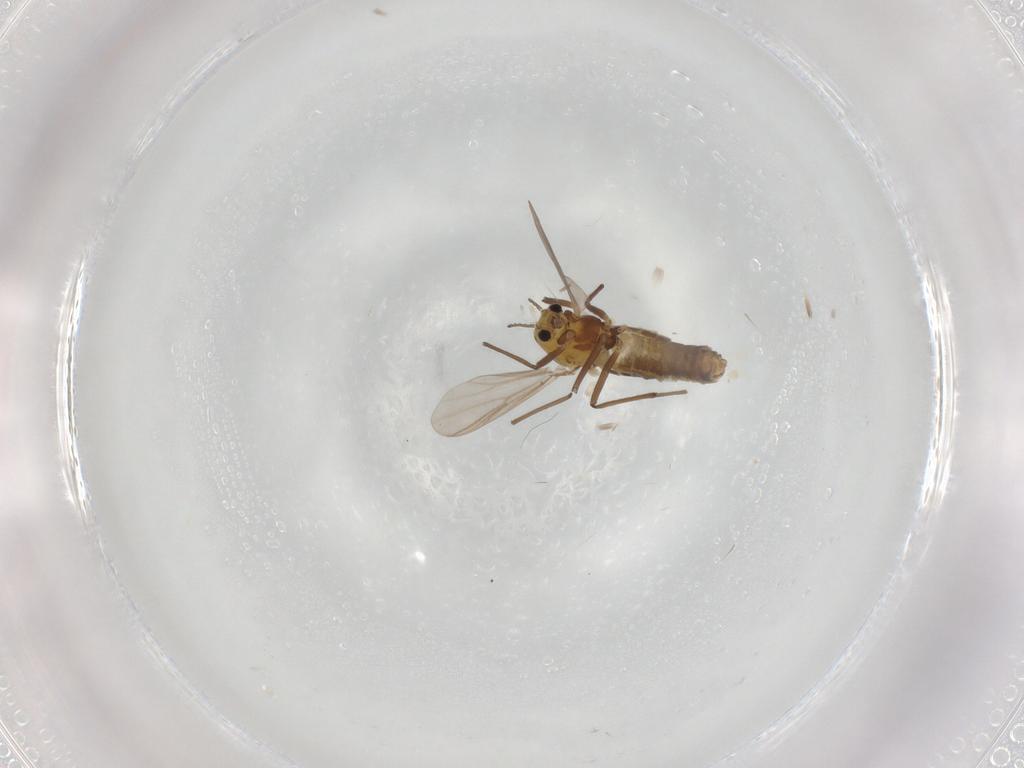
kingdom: Animalia
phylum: Arthropoda
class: Insecta
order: Diptera
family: Chironomidae
